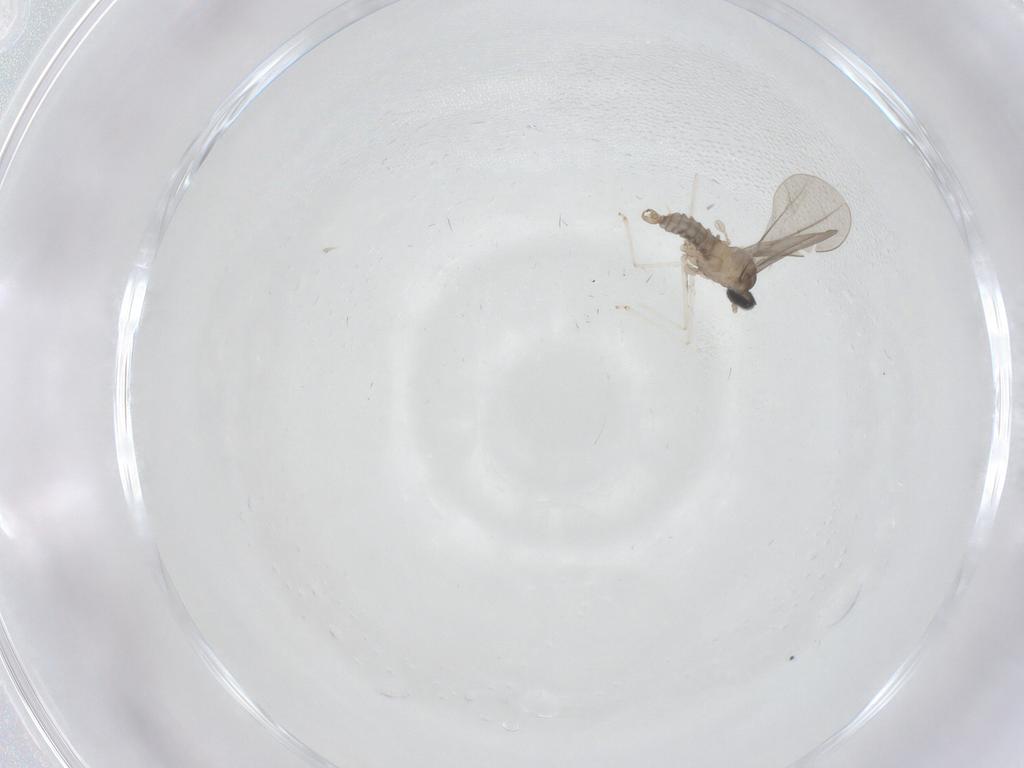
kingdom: Animalia
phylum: Arthropoda
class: Insecta
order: Diptera
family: Cecidomyiidae
